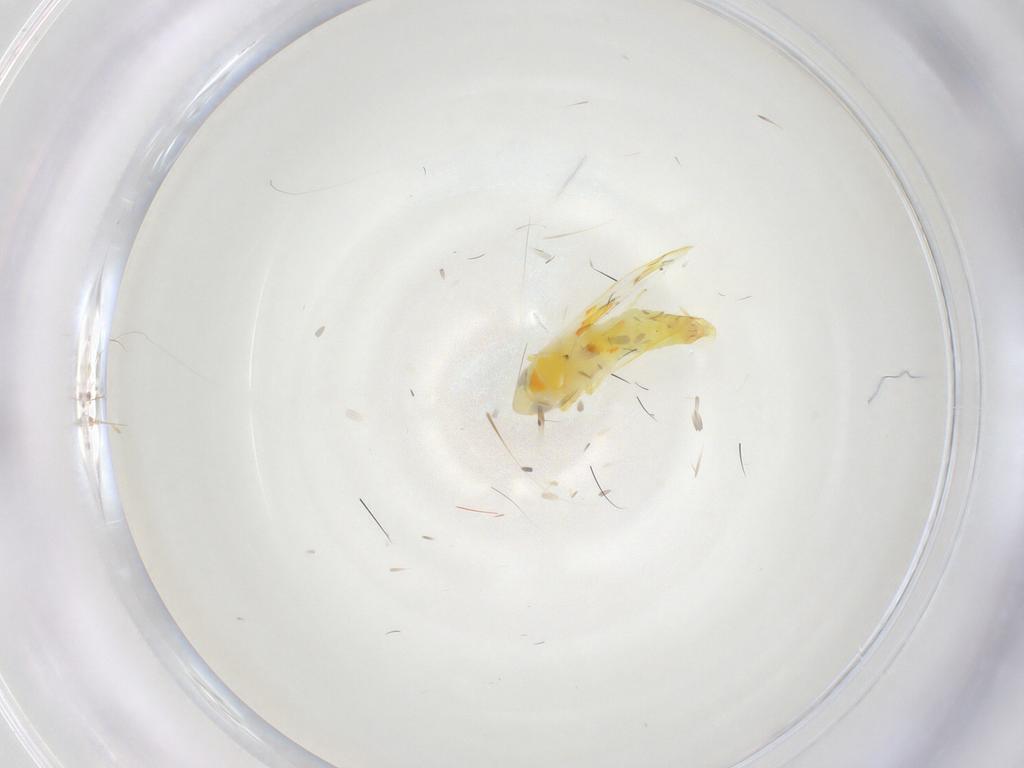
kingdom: Animalia
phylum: Arthropoda
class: Insecta
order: Hemiptera
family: Cicadellidae
